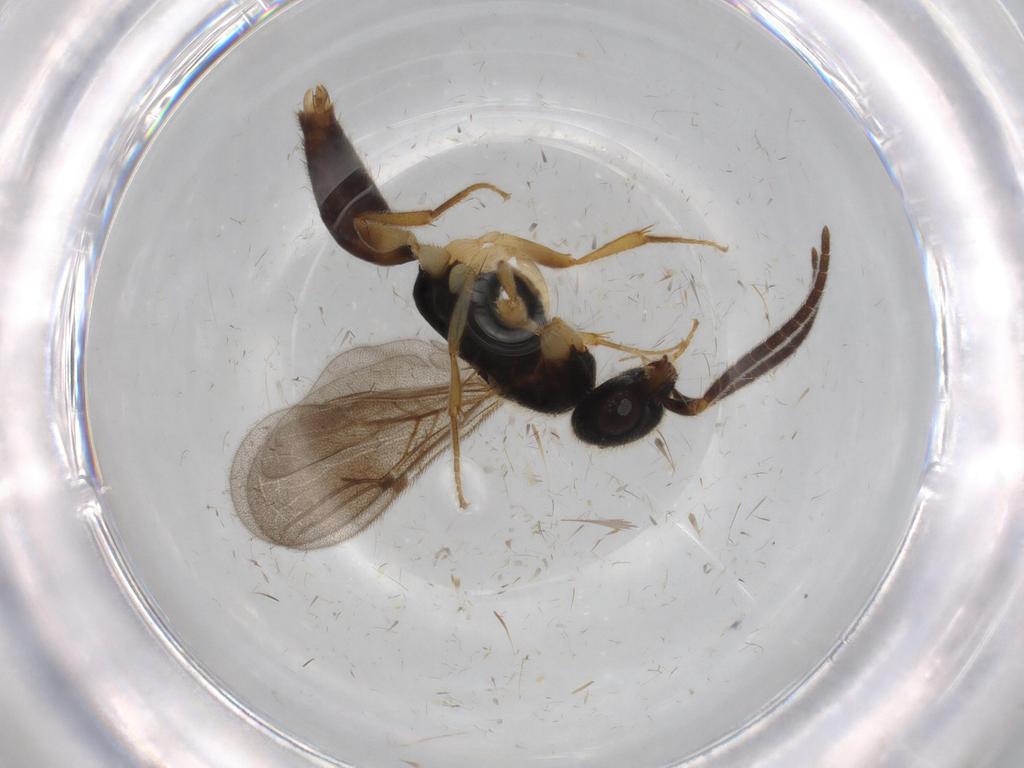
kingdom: Animalia
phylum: Arthropoda
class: Insecta
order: Hymenoptera
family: Bethylidae
